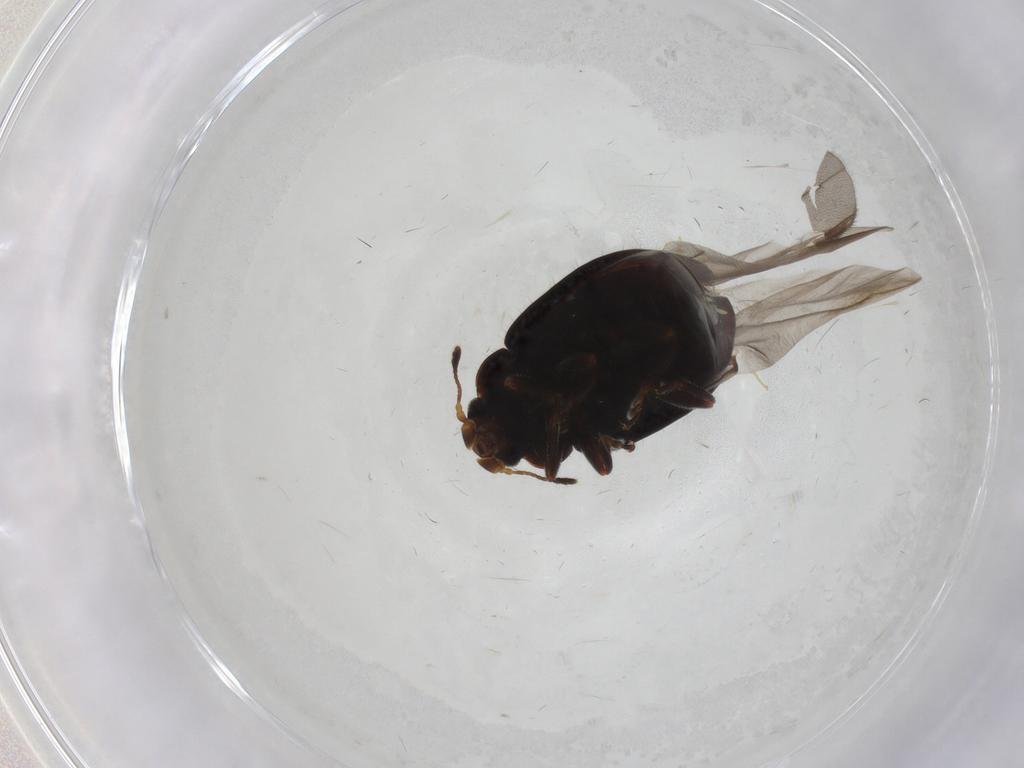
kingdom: Animalia
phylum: Arthropoda
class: Insecta
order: Coleoptera
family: Coccinellidae
